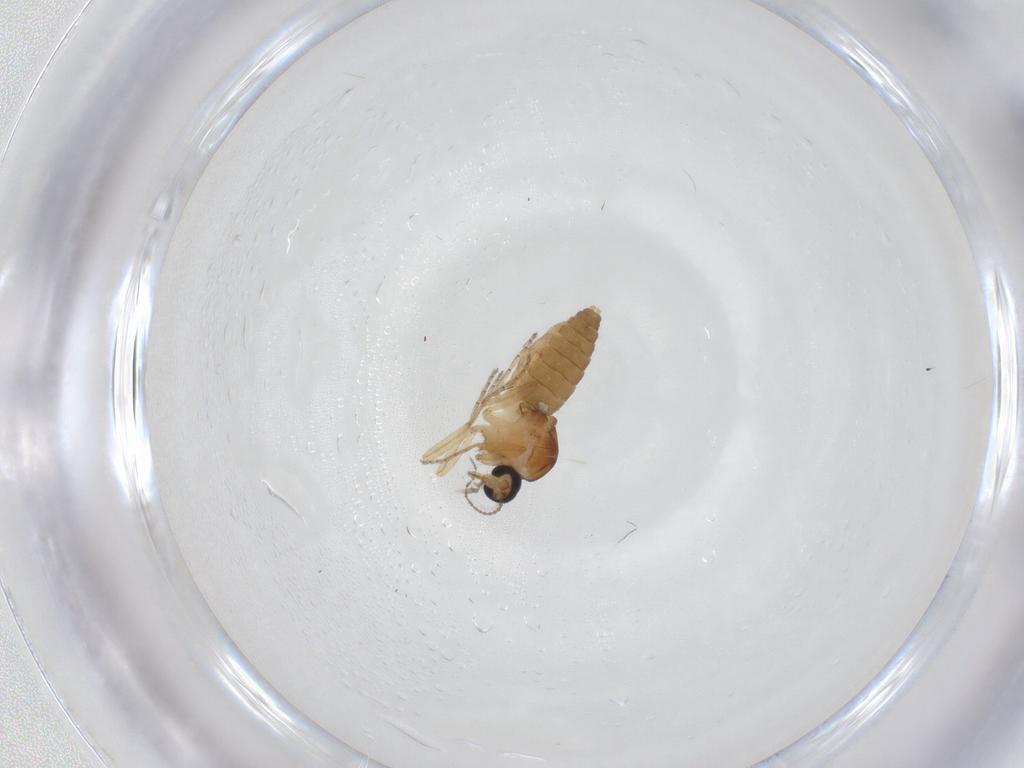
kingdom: Animalia
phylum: Arthropoda
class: Insecta
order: Diptera
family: Ceratopogonidae
